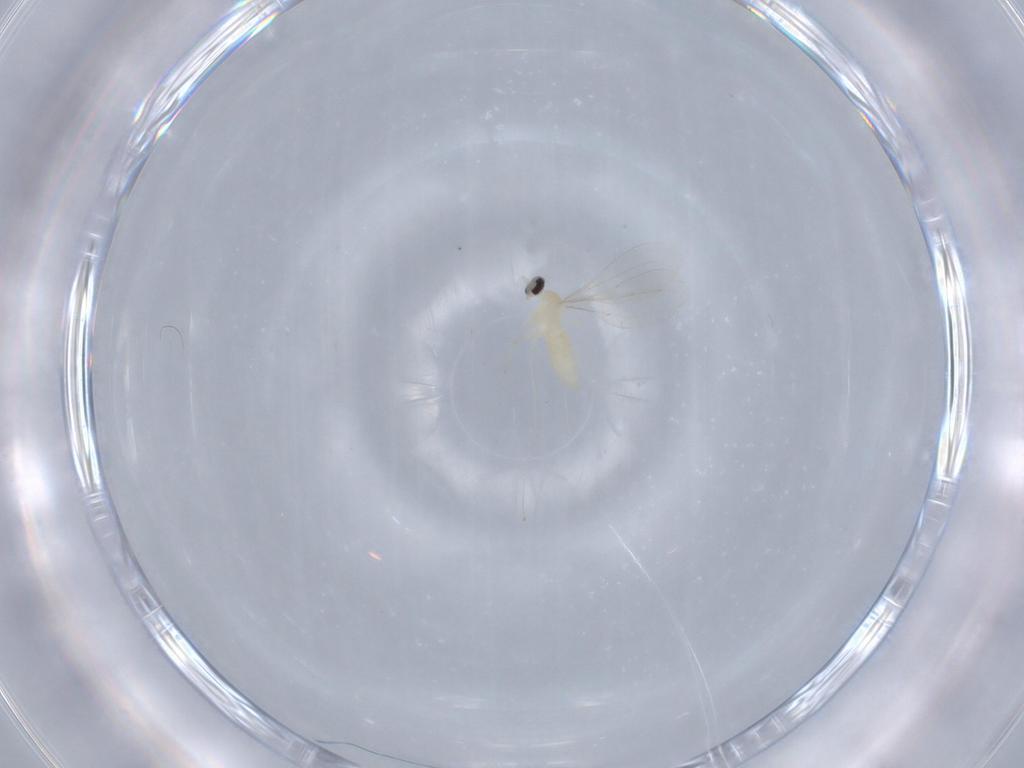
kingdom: Animalia
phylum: Arthropoda
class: Insecta
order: Diptera
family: Cecidomyiidae
